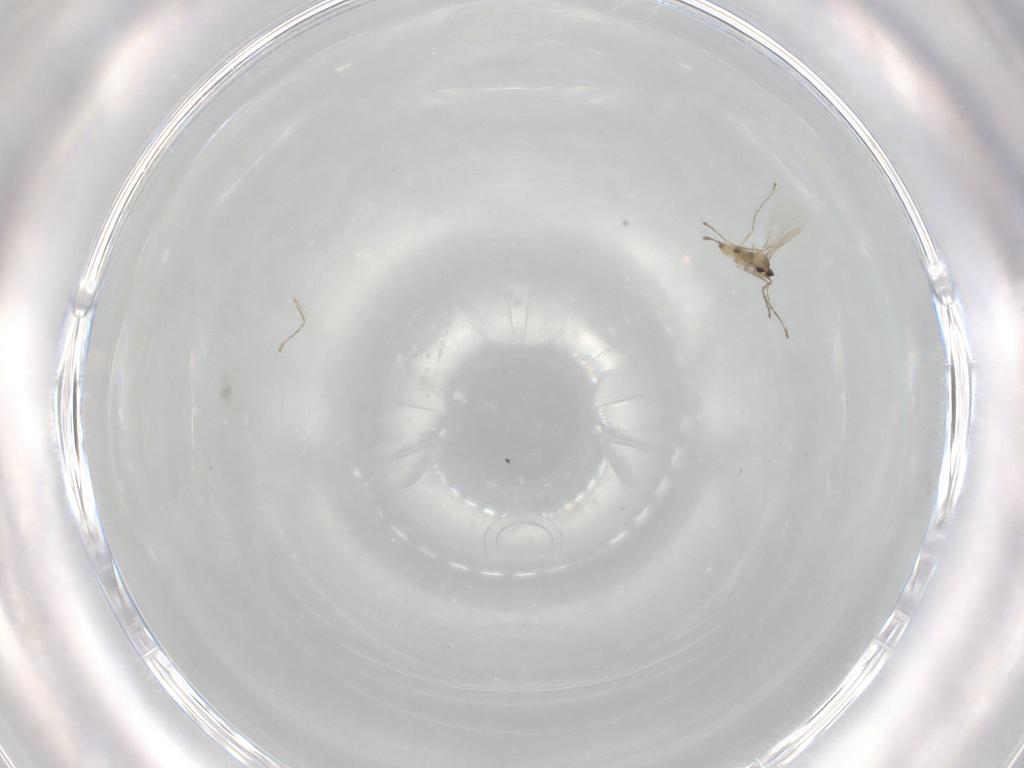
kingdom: Animalia
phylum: Arthropoda
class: Insecta
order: Diptera
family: Cecidomyiidae
